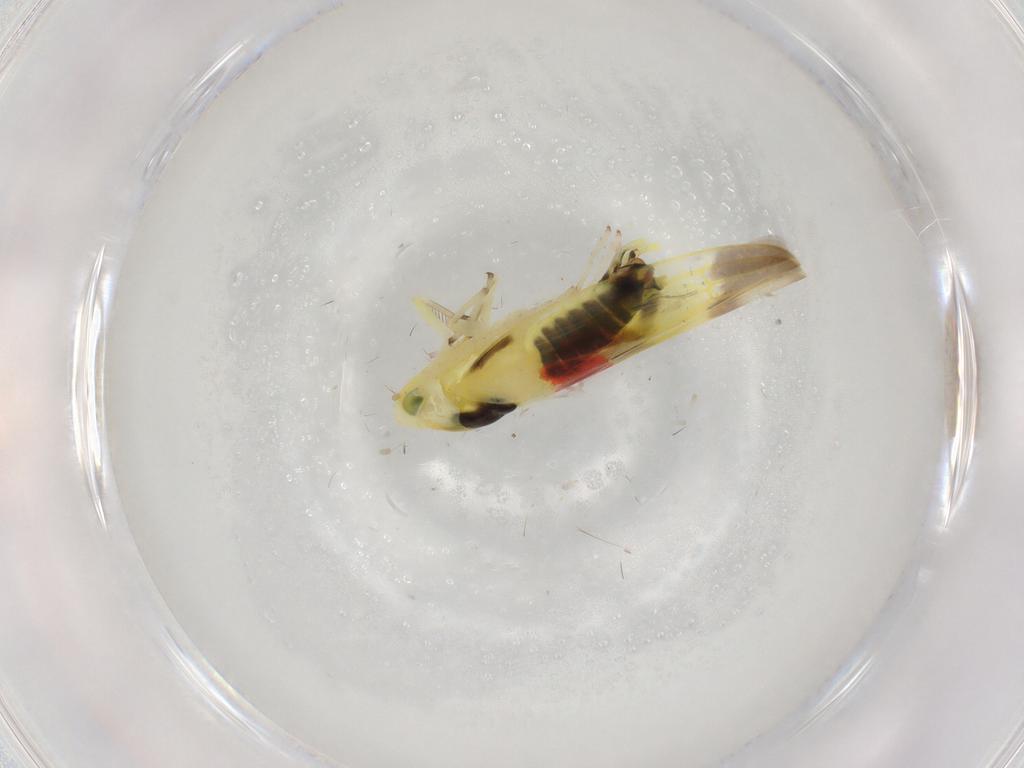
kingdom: Animalia
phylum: Arthropoda
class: Insecta
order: Hemiptera
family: Cicadellidae
